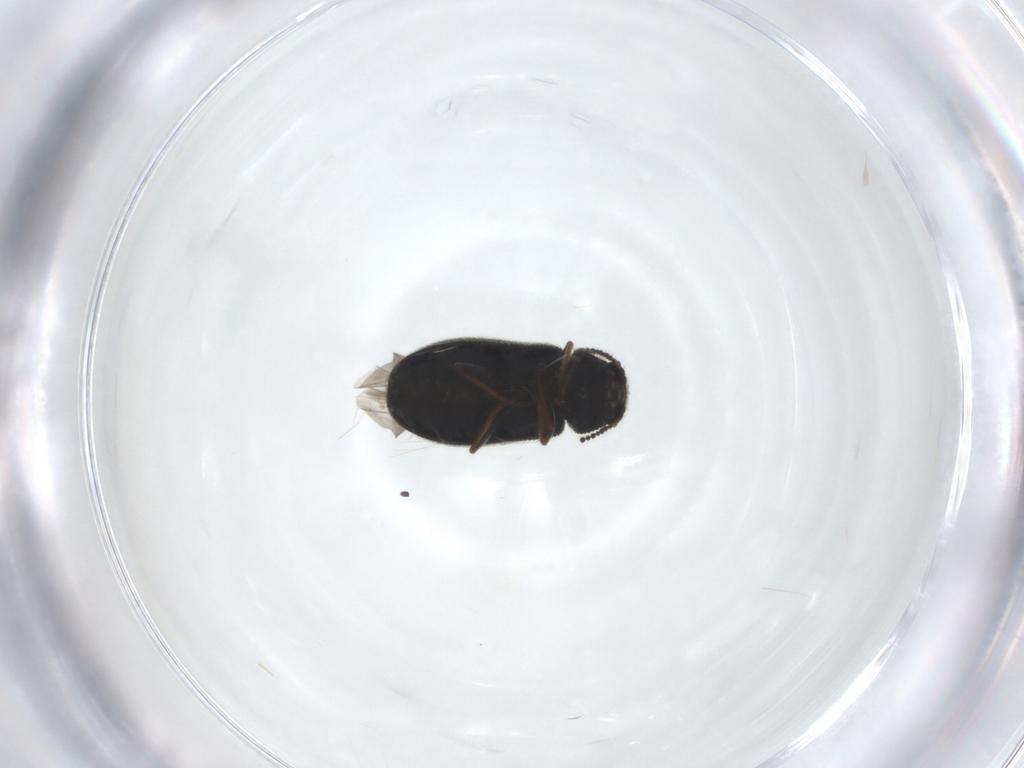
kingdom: Animalia
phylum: Arthropoda
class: Insecta
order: Coleoptera
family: Melyridae
